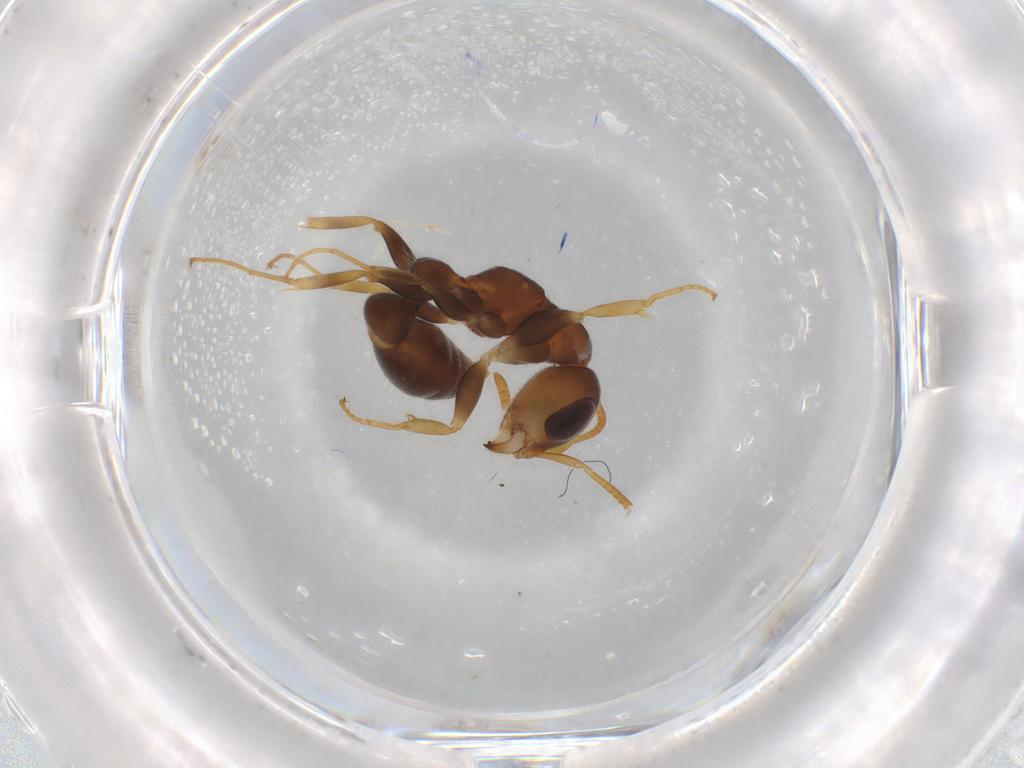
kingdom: Animalia
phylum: Arthropoda
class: Insecta
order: Hymenoptera
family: Formicidae
